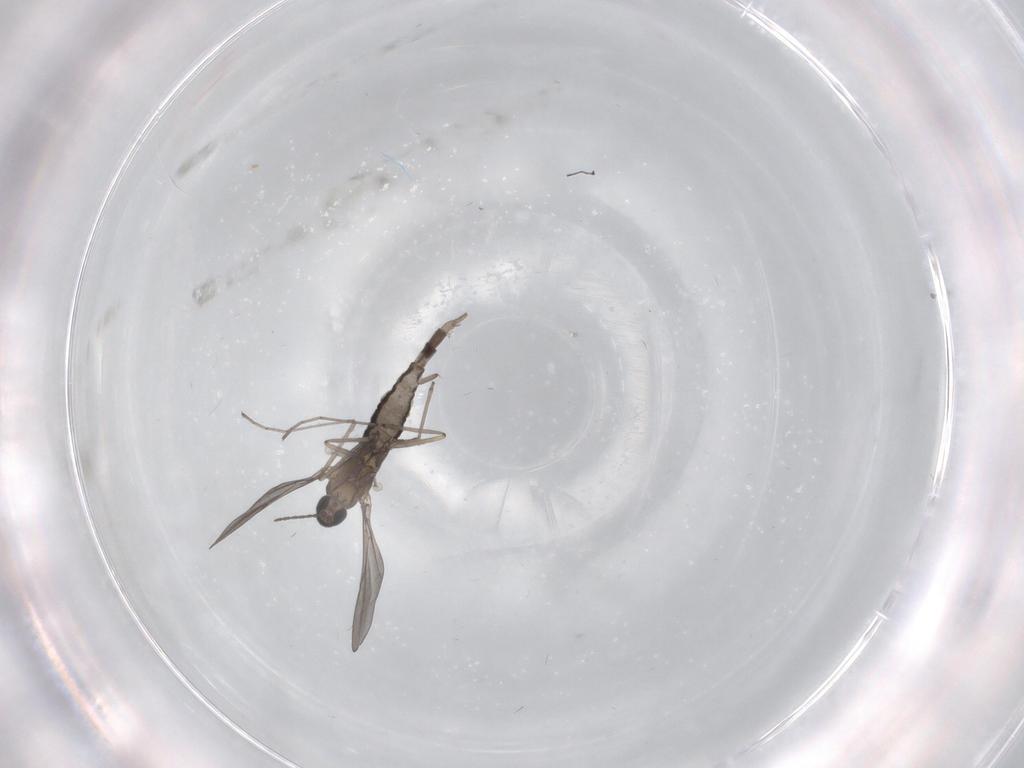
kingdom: Animalia
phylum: Arthropoda
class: Insecta
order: Diptera
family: Cecidomyiidae
